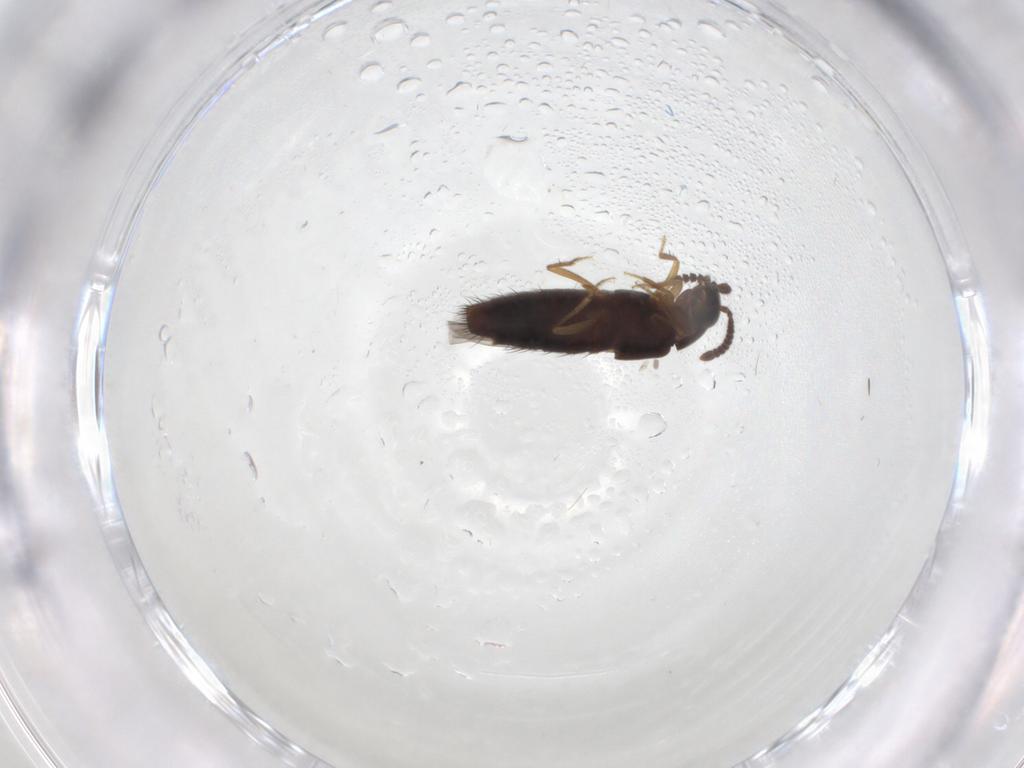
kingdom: Animalia
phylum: Arthropoda
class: Insecta
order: Coleoptera
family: Staphylinidae
